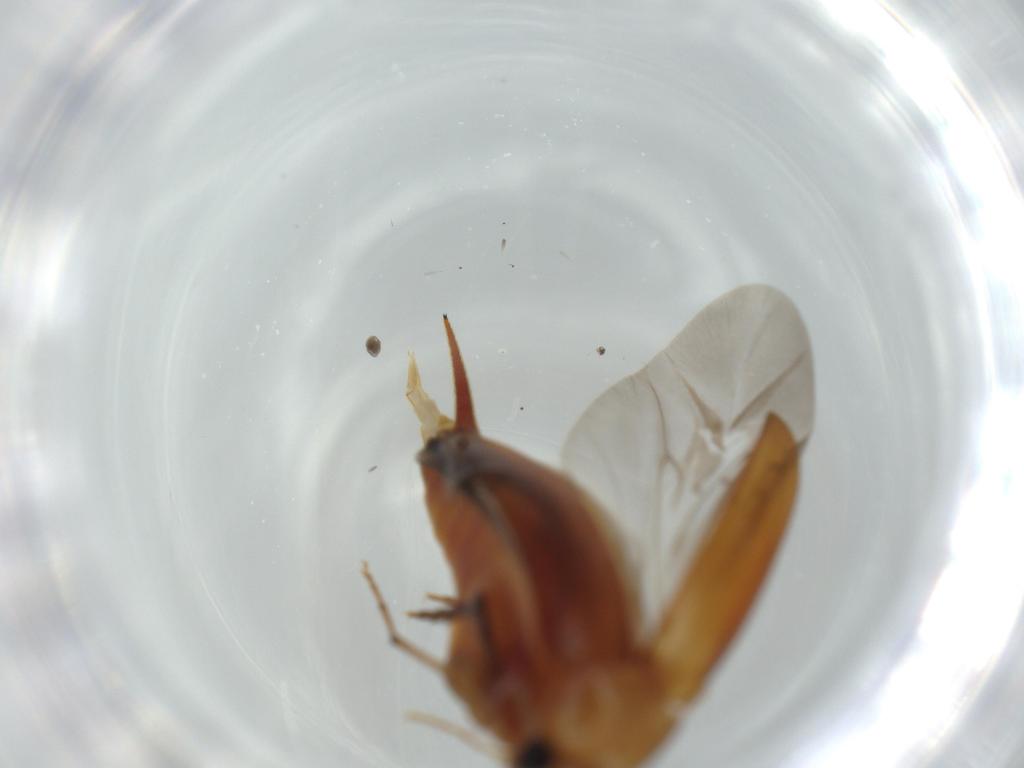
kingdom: Animalia
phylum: Arthropoda
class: Insecta
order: Coleoptera
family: Mordellidae
